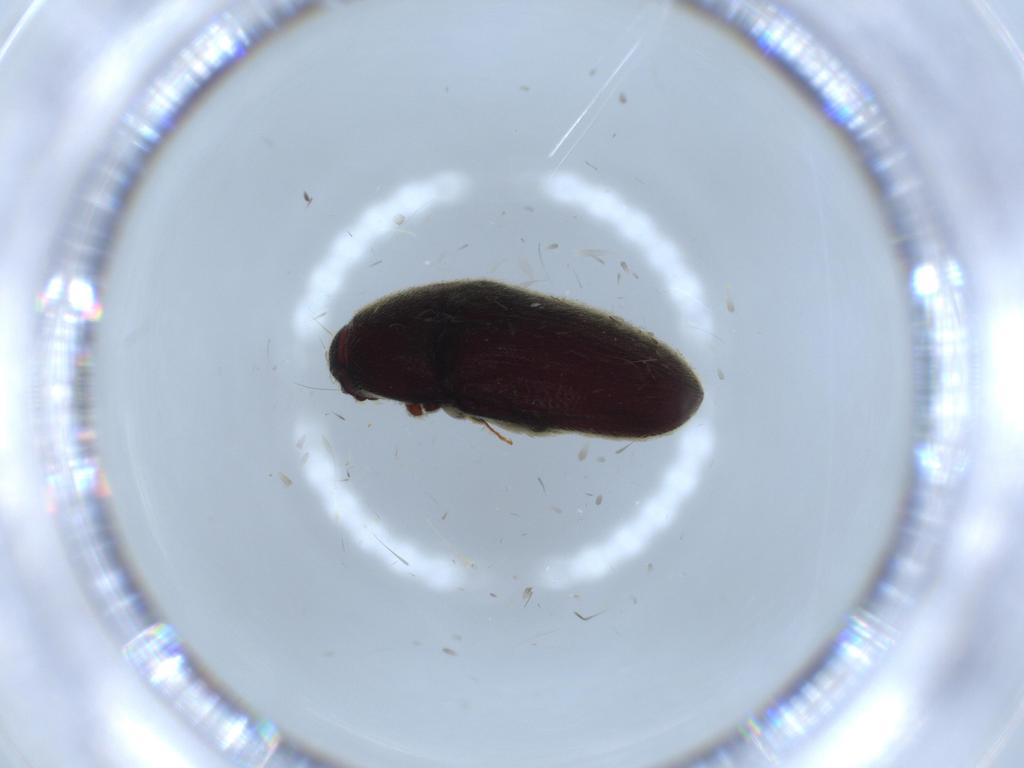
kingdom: Animalia
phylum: Arthropoda
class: Insecta
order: Coleoptera
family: Throscidae
